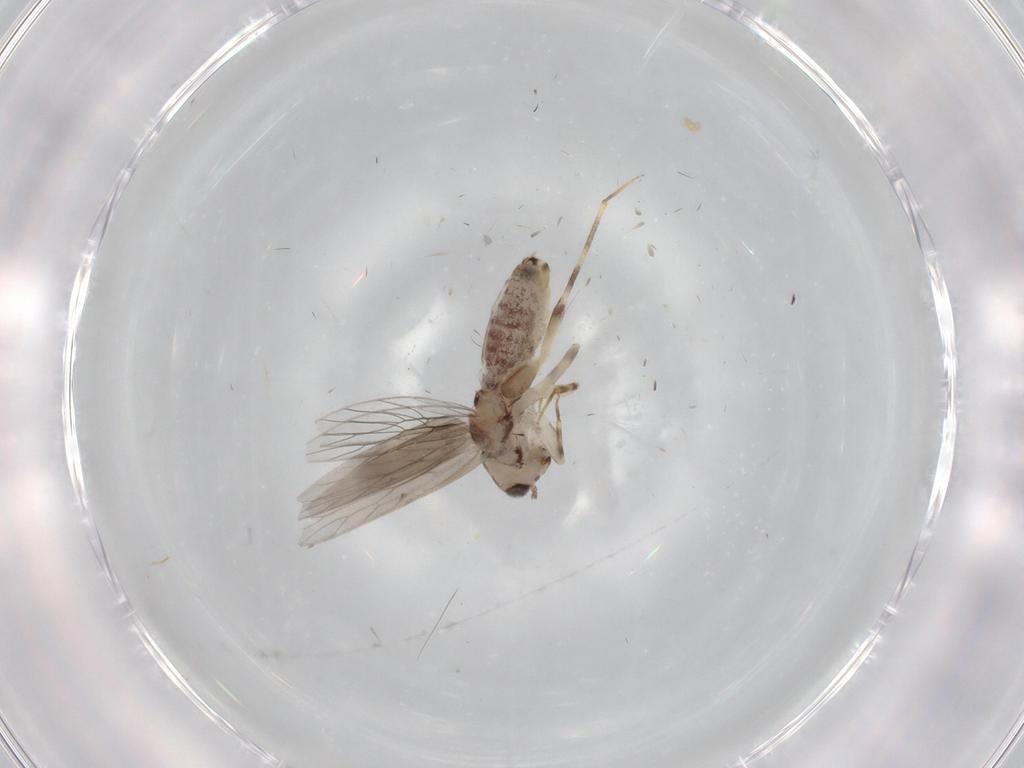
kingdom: Animalia
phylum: Arthropoda
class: Insecta
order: Psocodea
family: Lepidopsocidae
